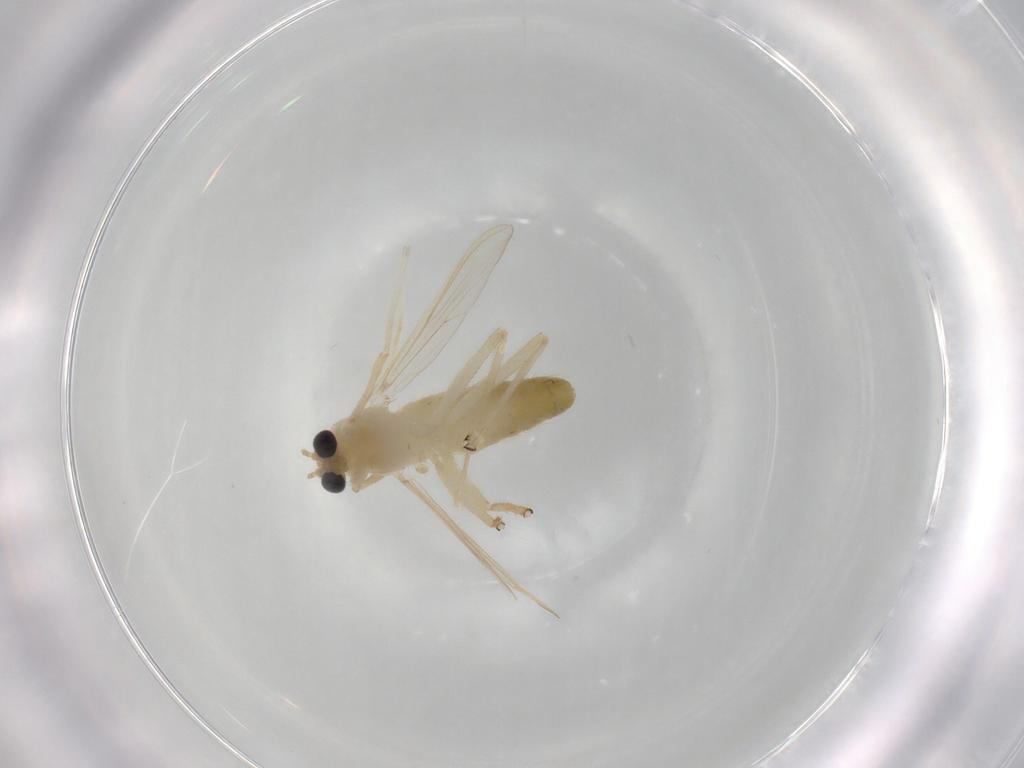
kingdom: Animalia
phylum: Arthropoda
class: Insecta
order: Diptera
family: Chironomidae
